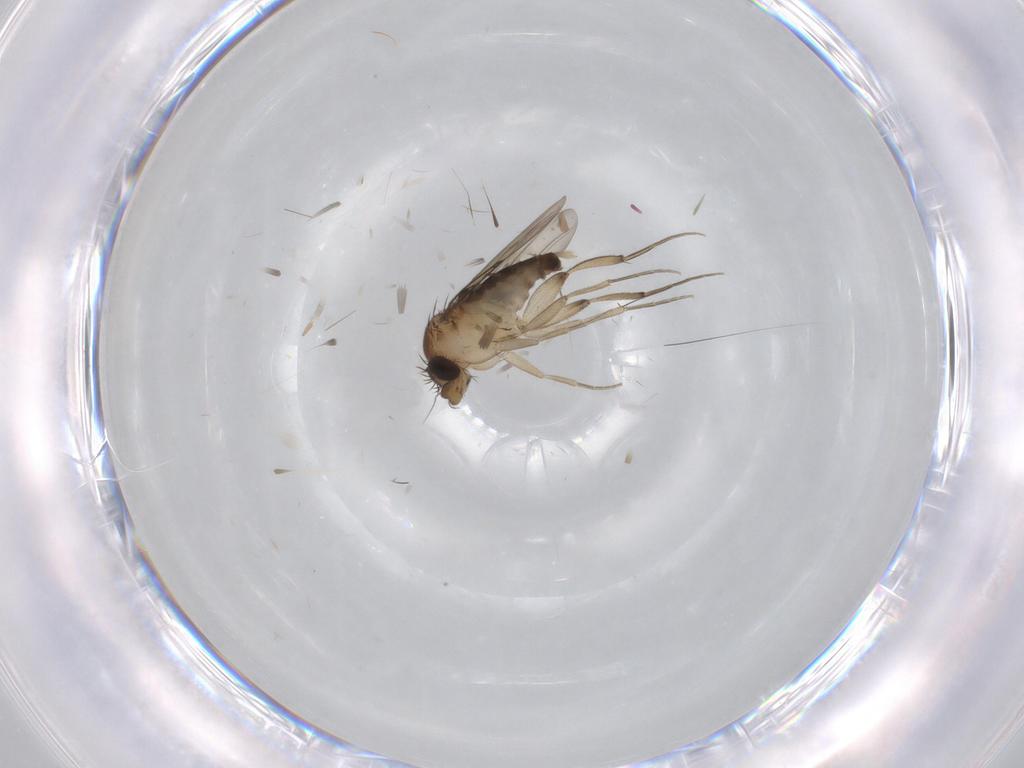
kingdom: Animalia
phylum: Arthropoda
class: Insecta
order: Diptera
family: Phoridae
